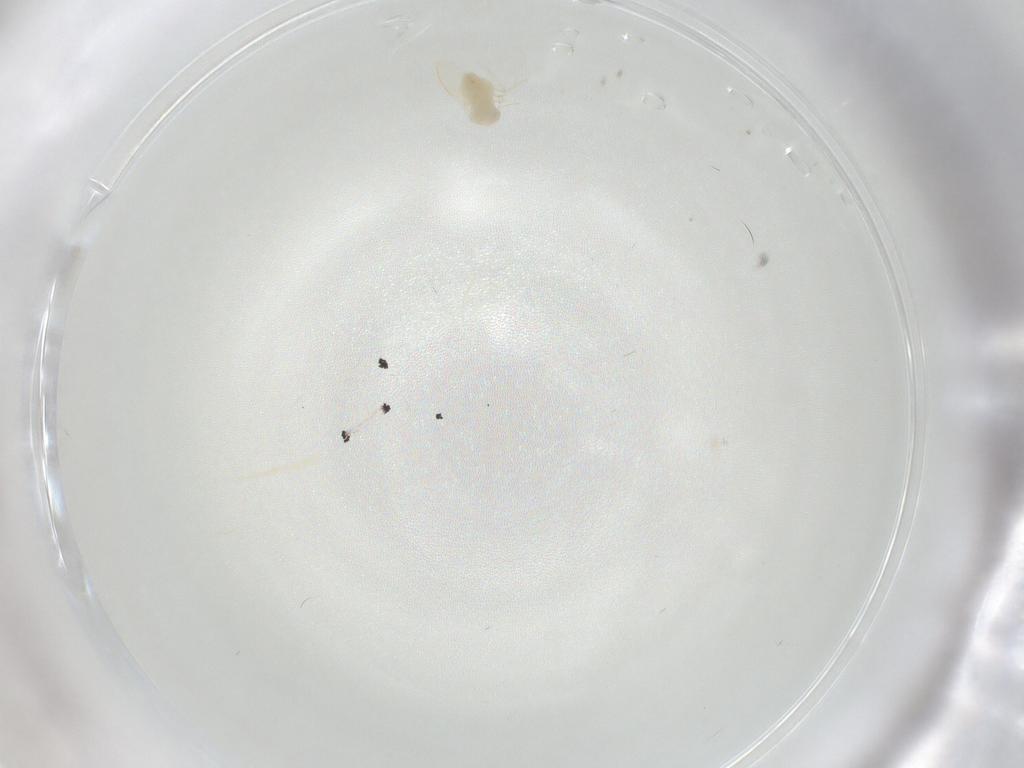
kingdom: Animalia
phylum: Arthropoda
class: Insecta
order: Hemiptera
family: Aleyrodidae
